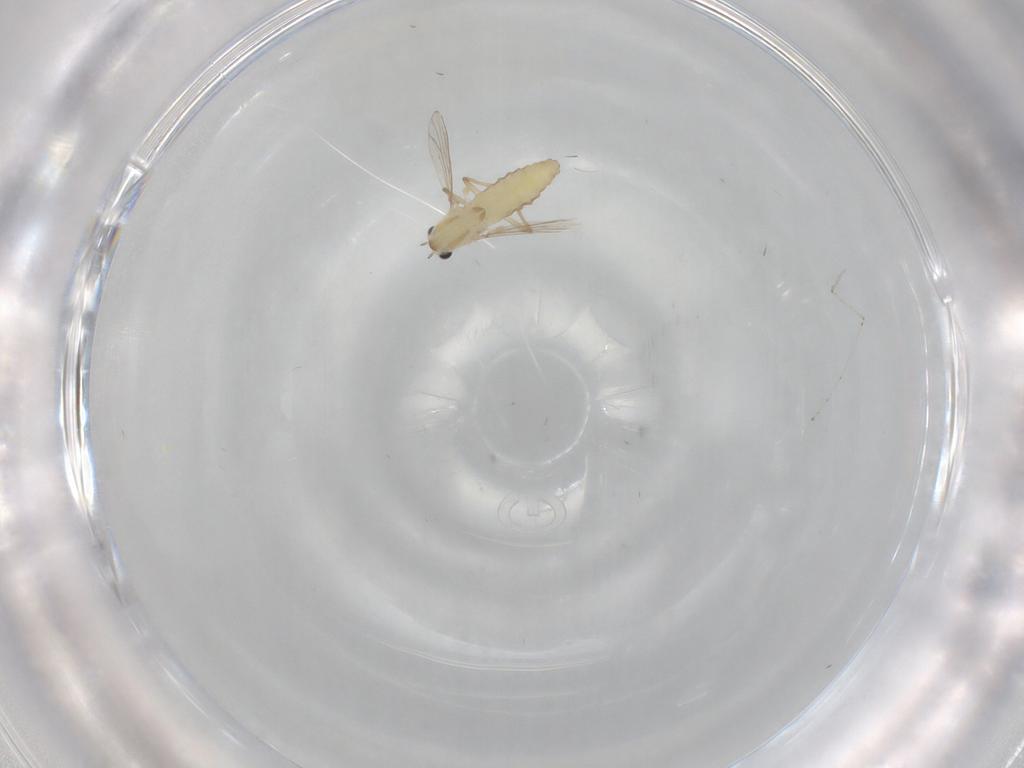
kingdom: Animalia
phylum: Arthropoda
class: Insecta
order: Diptera
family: Chironomidae
